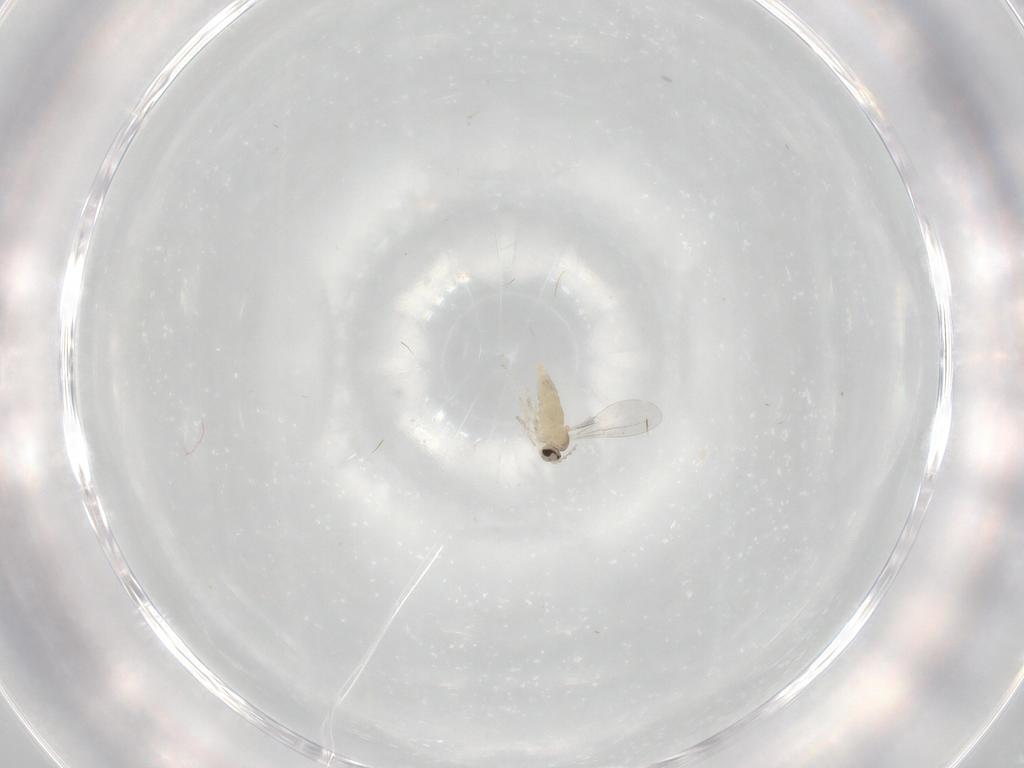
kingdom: Animalia
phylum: Arthropoda
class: Insecta
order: Diptera
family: Cecidomyiidae
